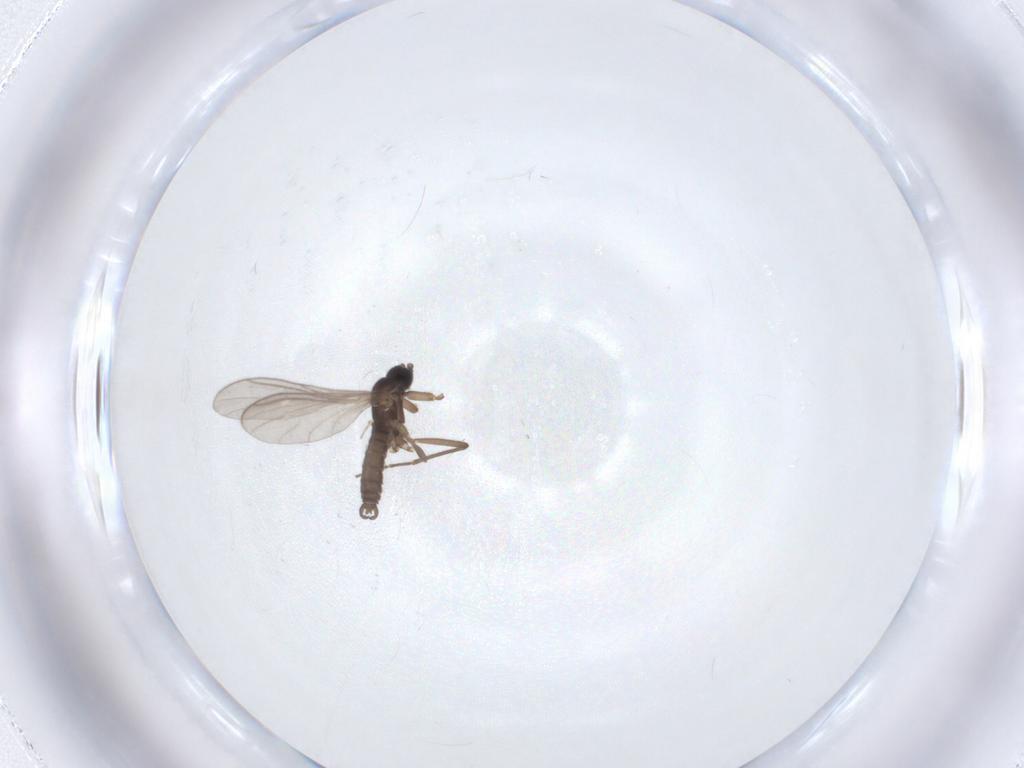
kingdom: Animalia
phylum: Arthropoda
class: Insecta
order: Diptera
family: Sciaridae
